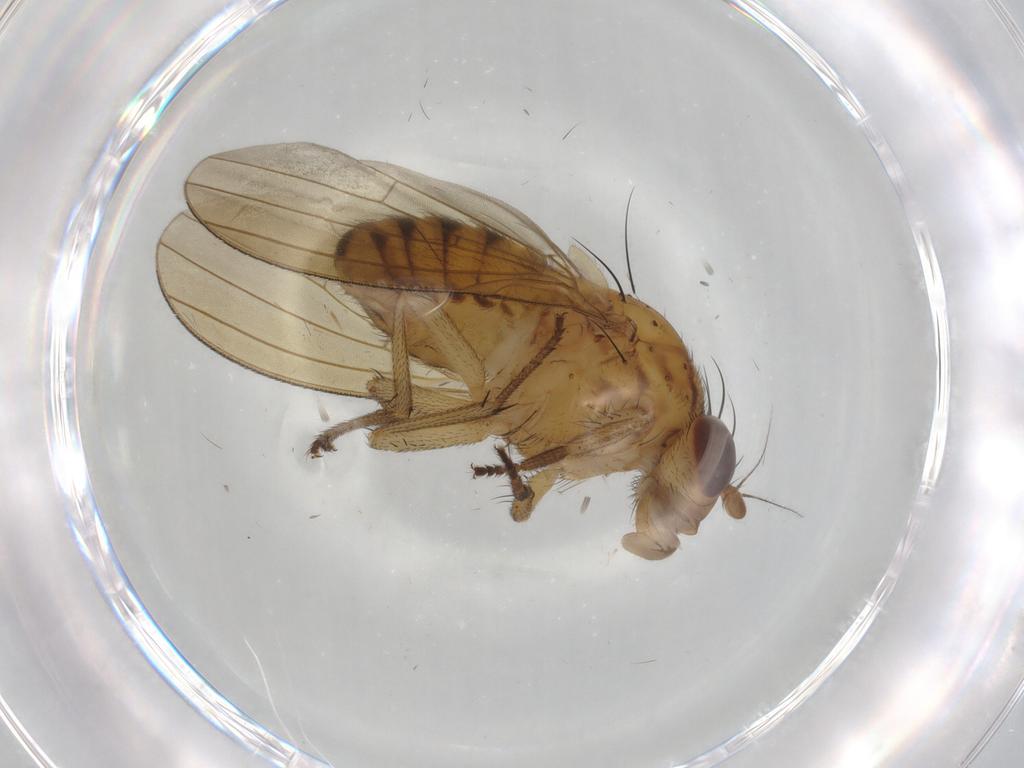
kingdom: Animalia
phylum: Arthropoda
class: Insecta
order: Diptera
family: Lauxaniidae
